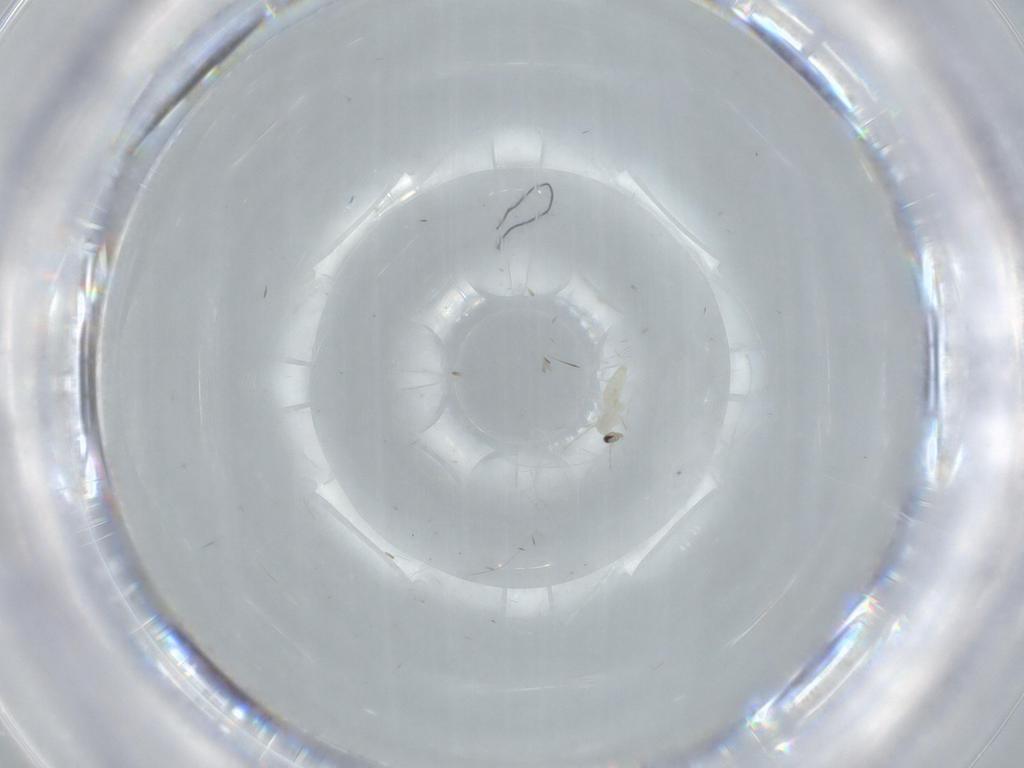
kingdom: Animalia
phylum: Arthropoda
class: Insecta
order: Diptera
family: Cecidomyiidae
